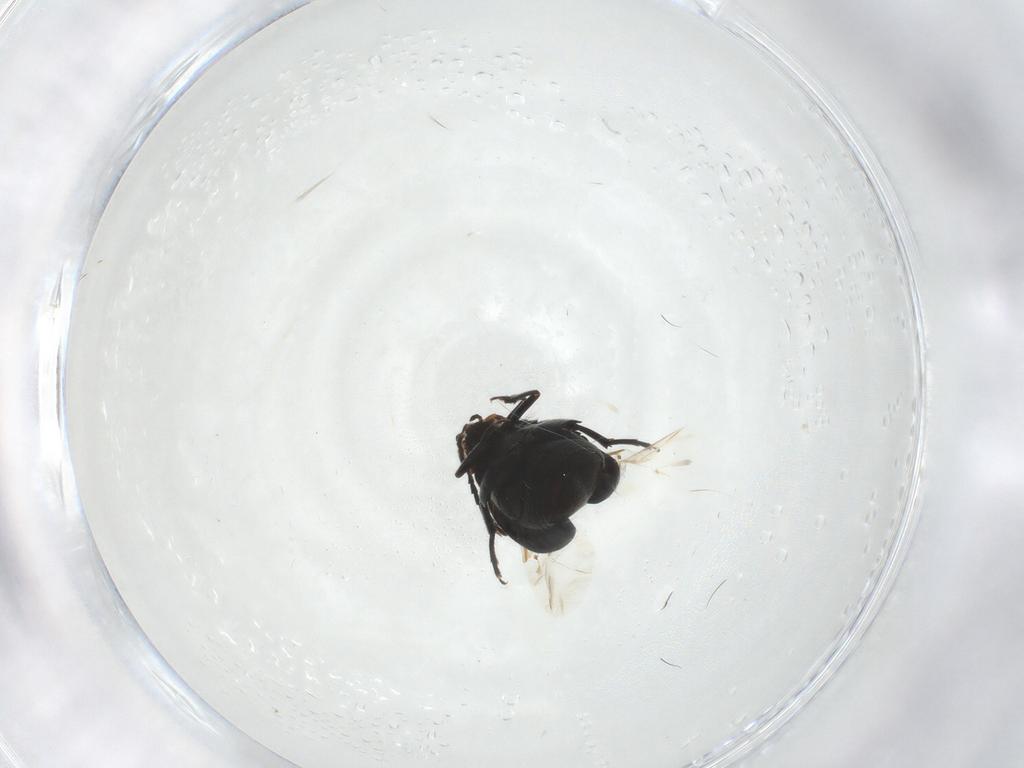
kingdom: Animalia
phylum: Arthropoda
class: Insecta
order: Coleoptera
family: Chrysomelidae
